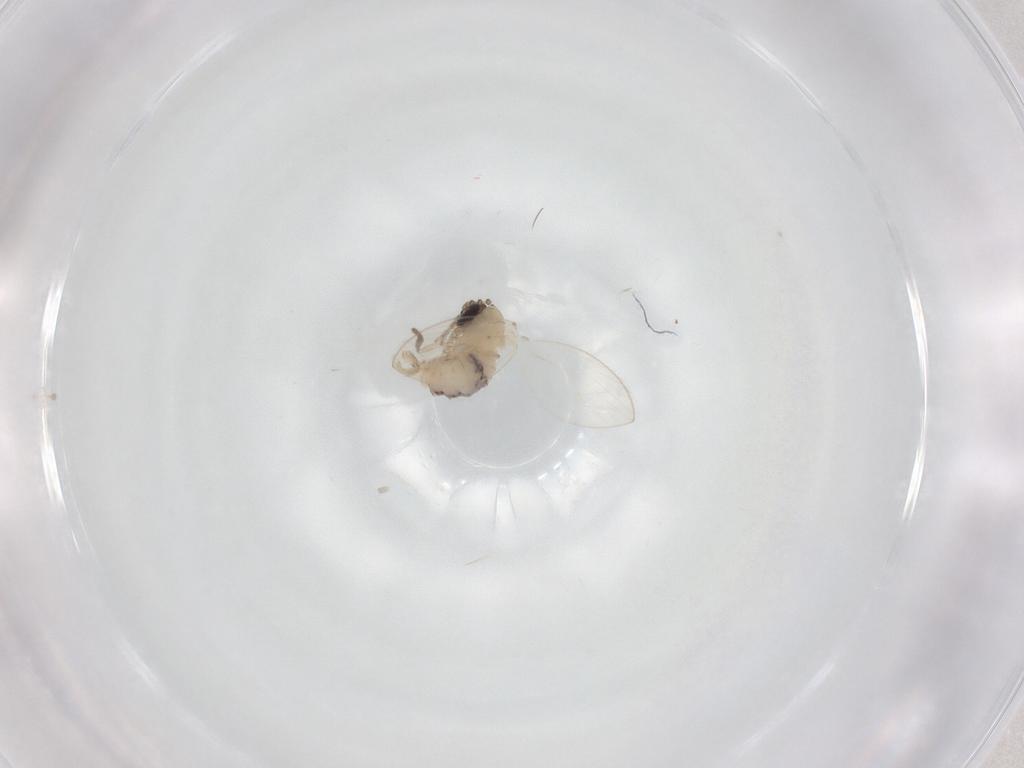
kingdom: Animalia
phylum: Arthropoda
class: Insecta
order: Diptera
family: Psychodidae
